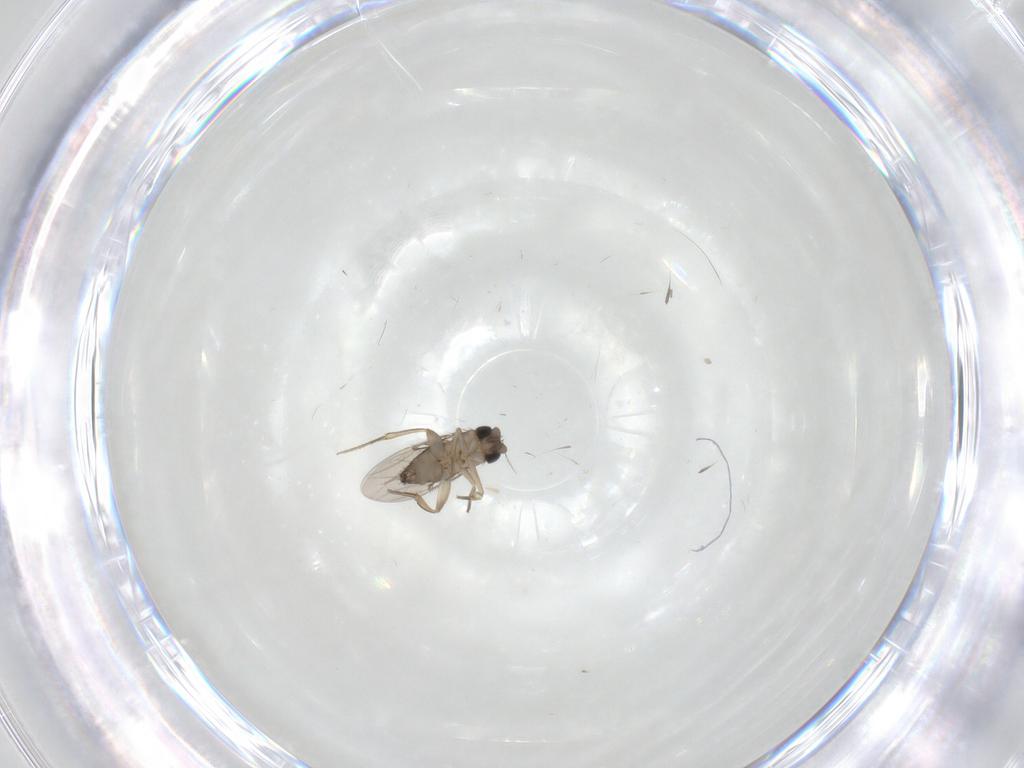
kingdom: Animalia
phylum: Arthropoda
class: Insecta
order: Diptera
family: Phoridae
